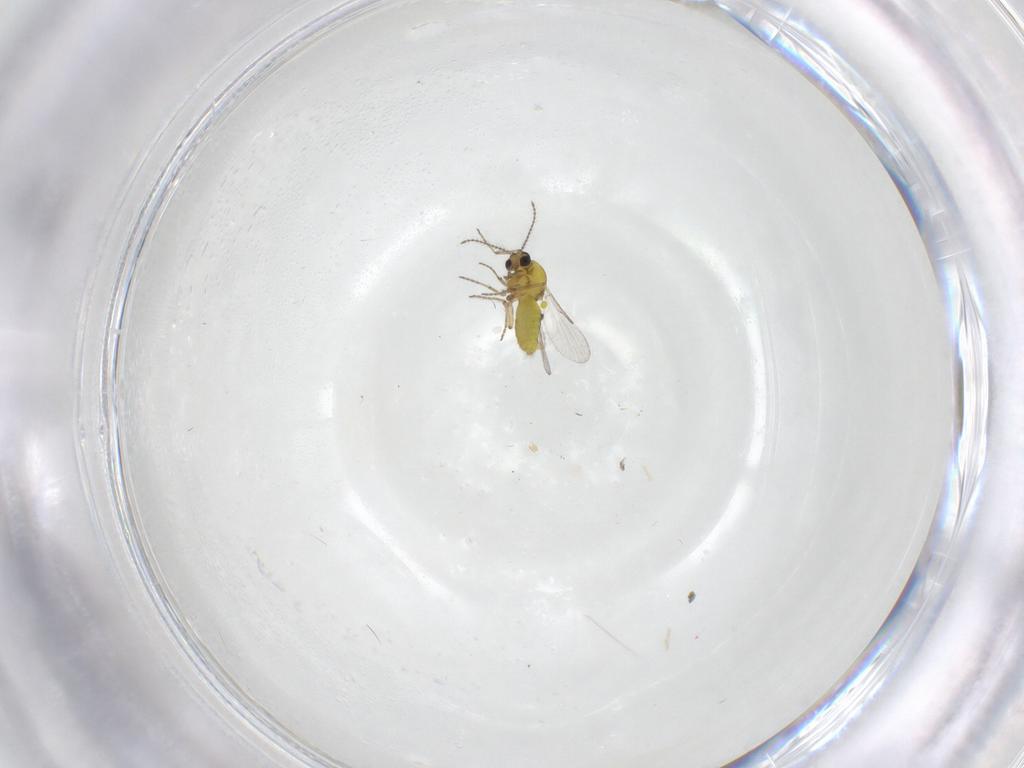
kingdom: Animalia
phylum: Arthropoda
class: Insecta
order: Diptera
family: Ceratopogonidae
